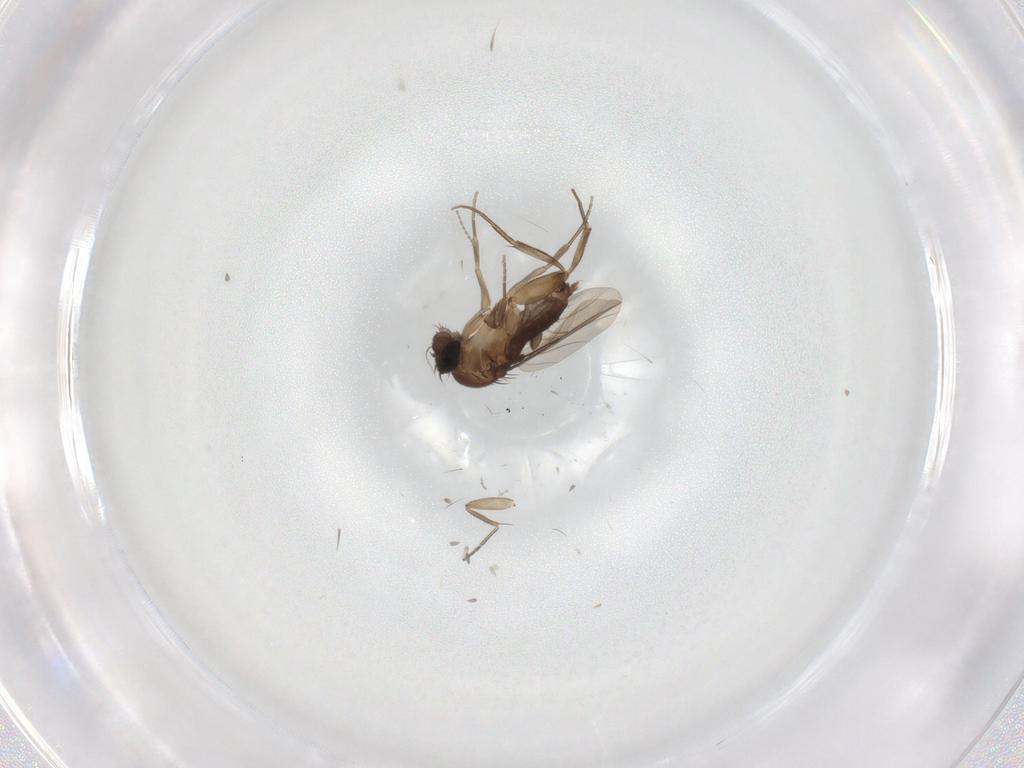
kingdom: Animalia
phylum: Arthropoda
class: Insecta
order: Diptera
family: Phoridae
